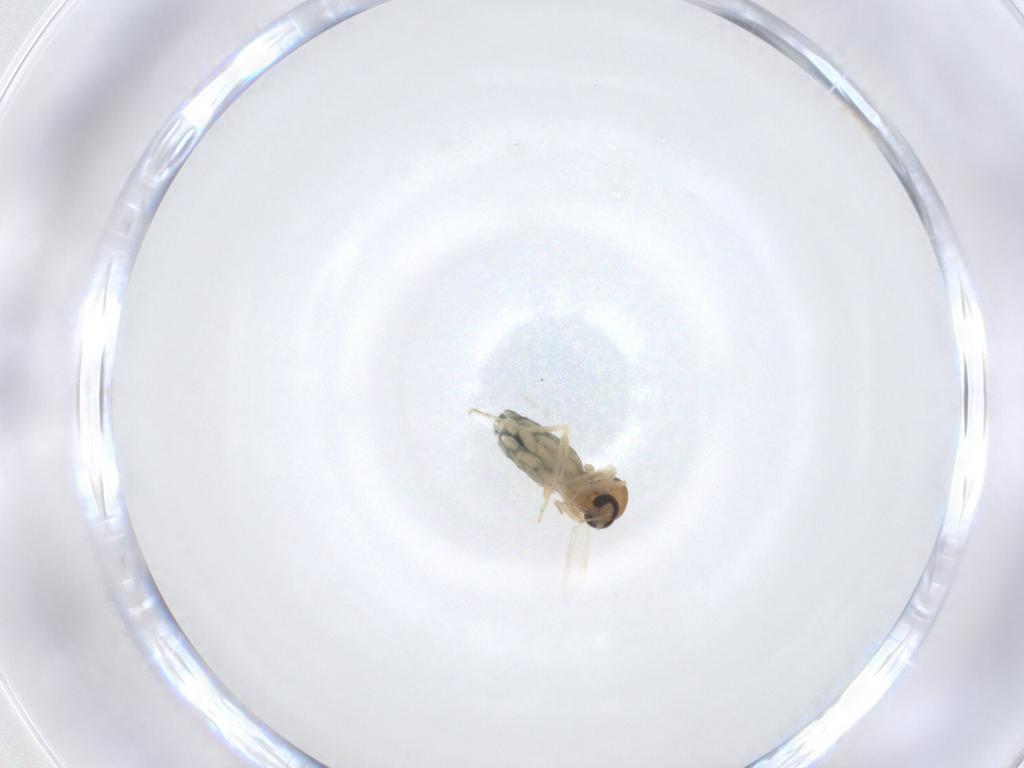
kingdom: Animalia
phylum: Arthropoda
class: Insecta
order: Diptera
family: Ceratopogonidae
